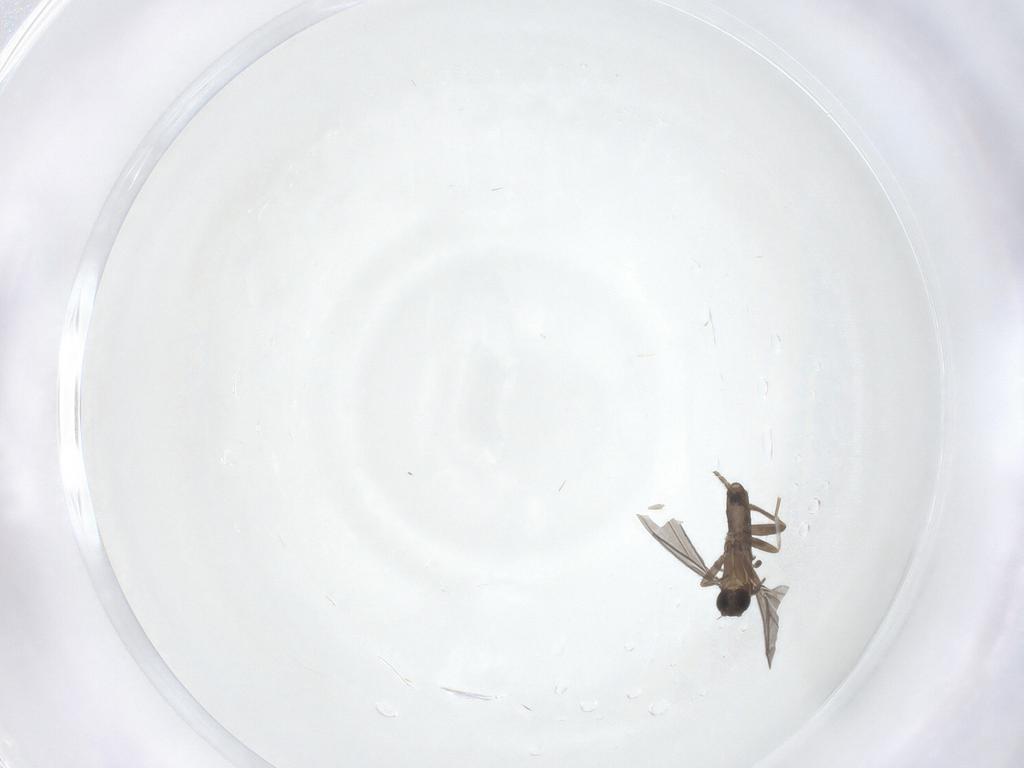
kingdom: Animalia
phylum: Arthropoda
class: Insecta
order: Diptera
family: Phoridae
